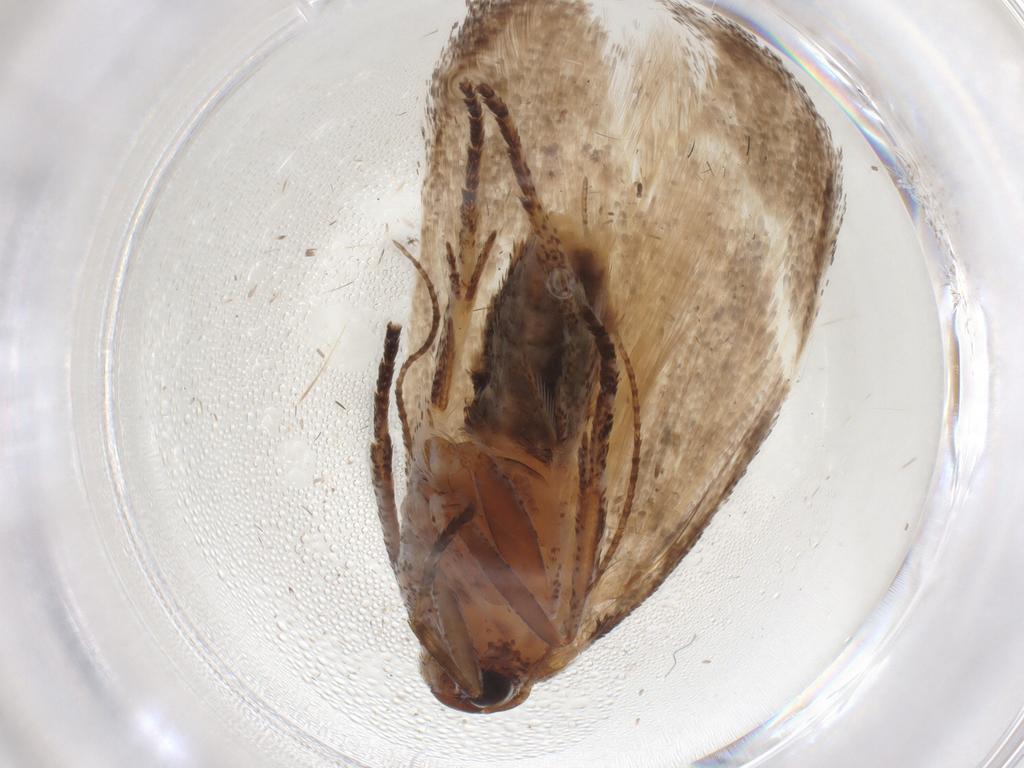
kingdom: Animalia
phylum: Arthropoda
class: Insecta
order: Lepidoptera
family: Cosmopterigidae
